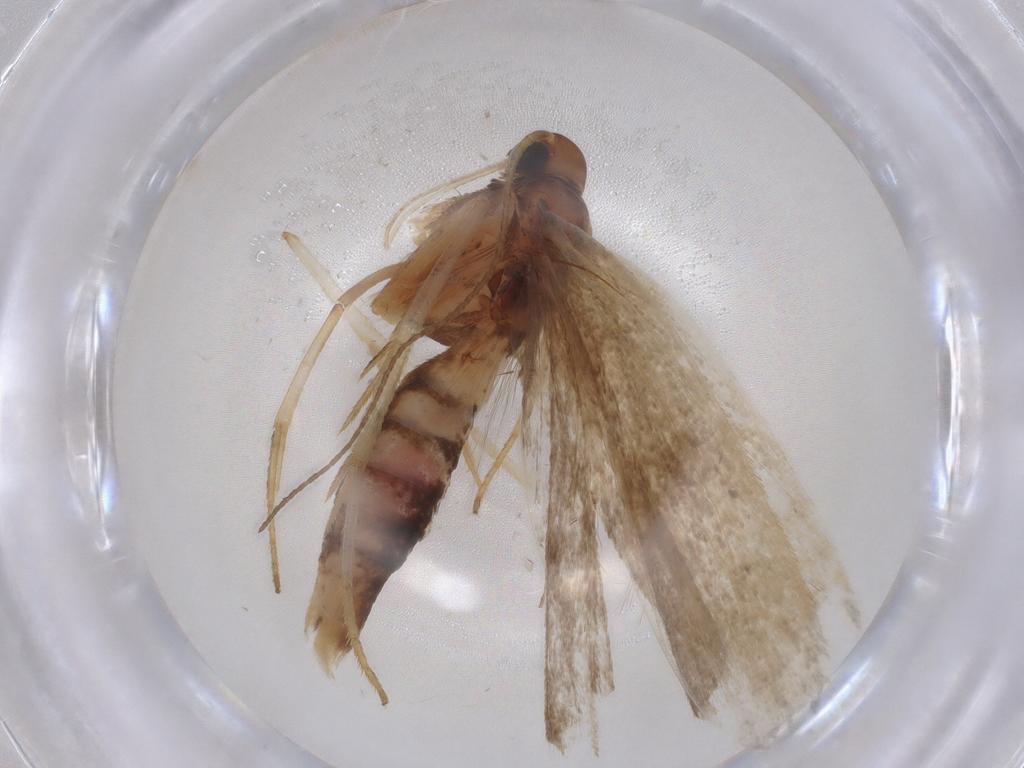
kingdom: Animalia
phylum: Arthropoda
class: Insecta
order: Lepidoptera
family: Gelechiidae
